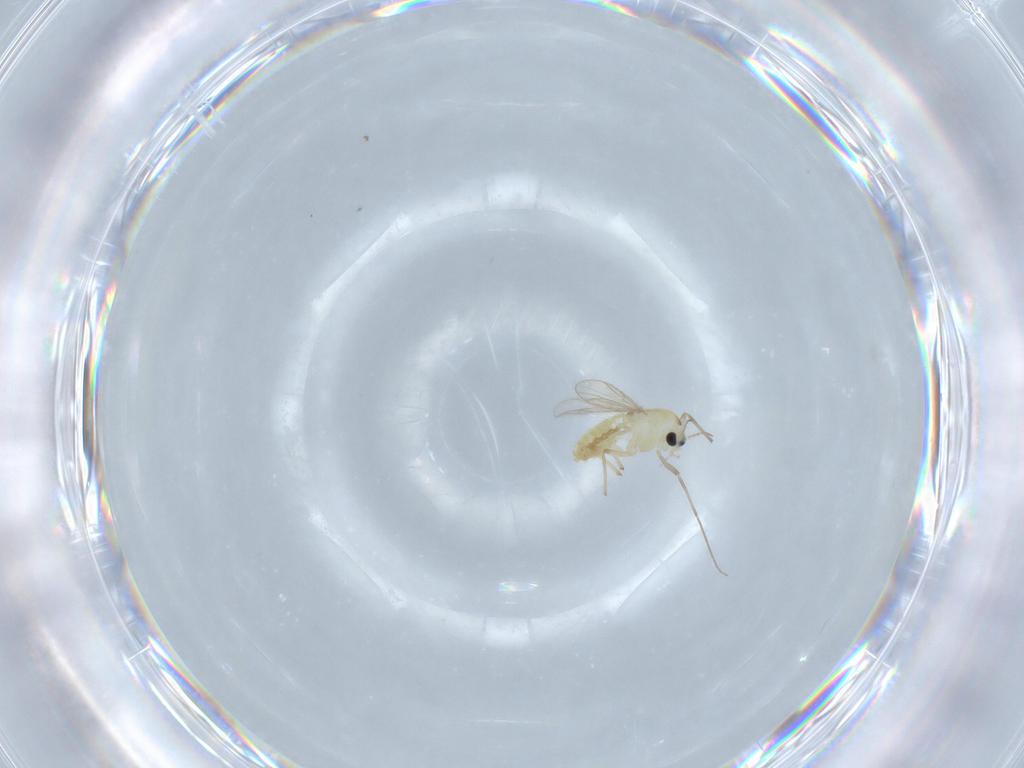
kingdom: Animalia
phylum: Arthropoda
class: Insecta
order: Diptera
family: Chironomidae
